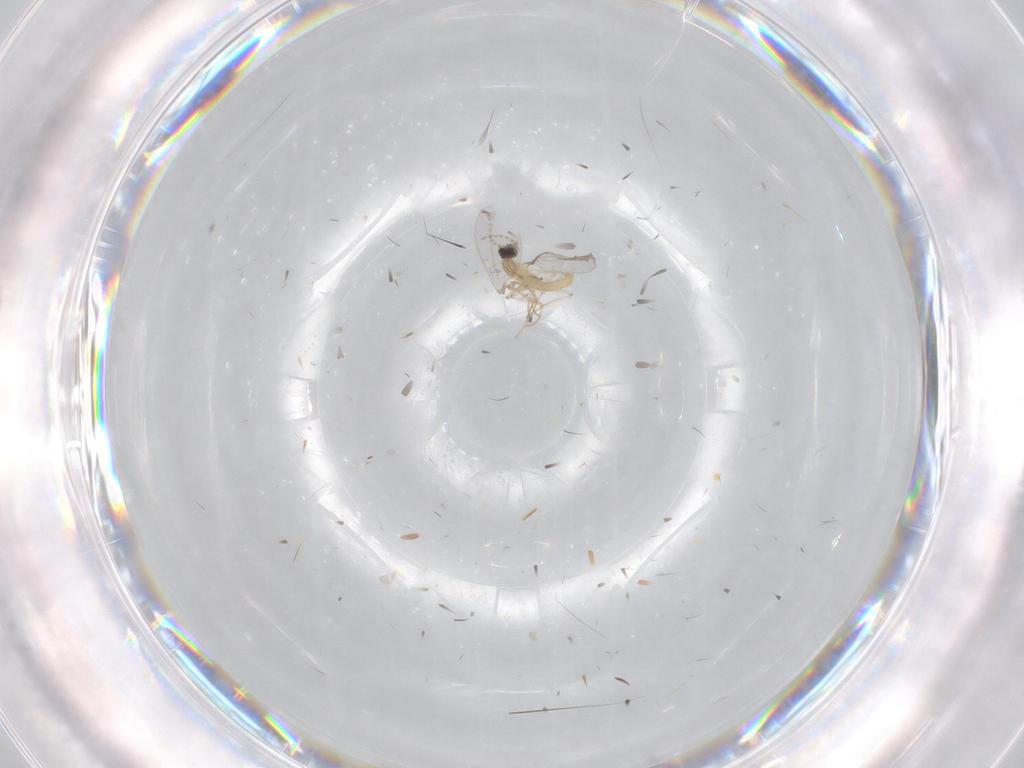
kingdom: Animalia
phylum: Arthropoda
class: Insecta
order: Diptera
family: Cecidomyiidae
